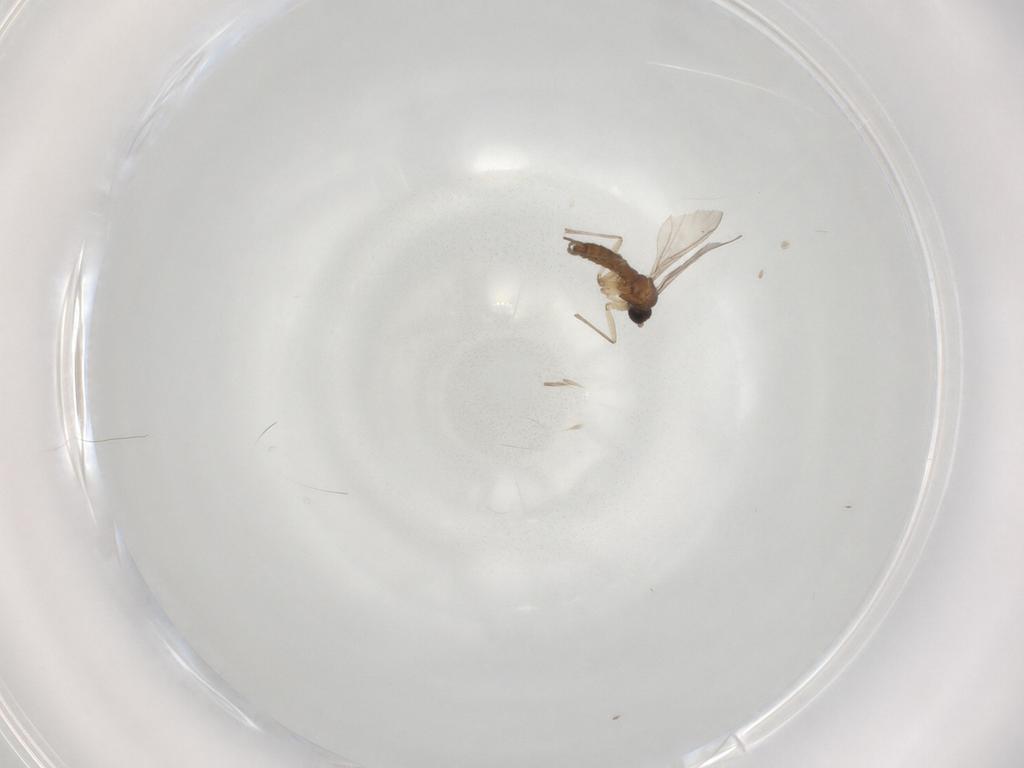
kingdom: Animalia
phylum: Arthropoda
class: Insecta
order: Diptera
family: Sciaridae
